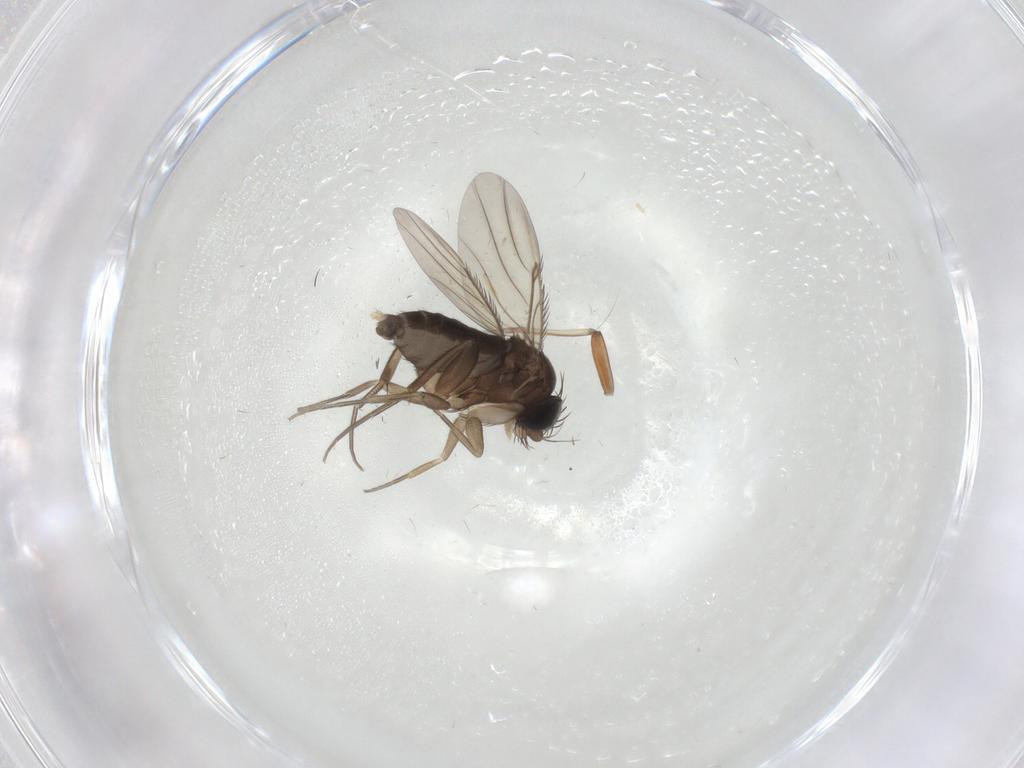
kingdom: Animalia
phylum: Arthropoda
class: Insecta
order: Diptera
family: Phoridae
